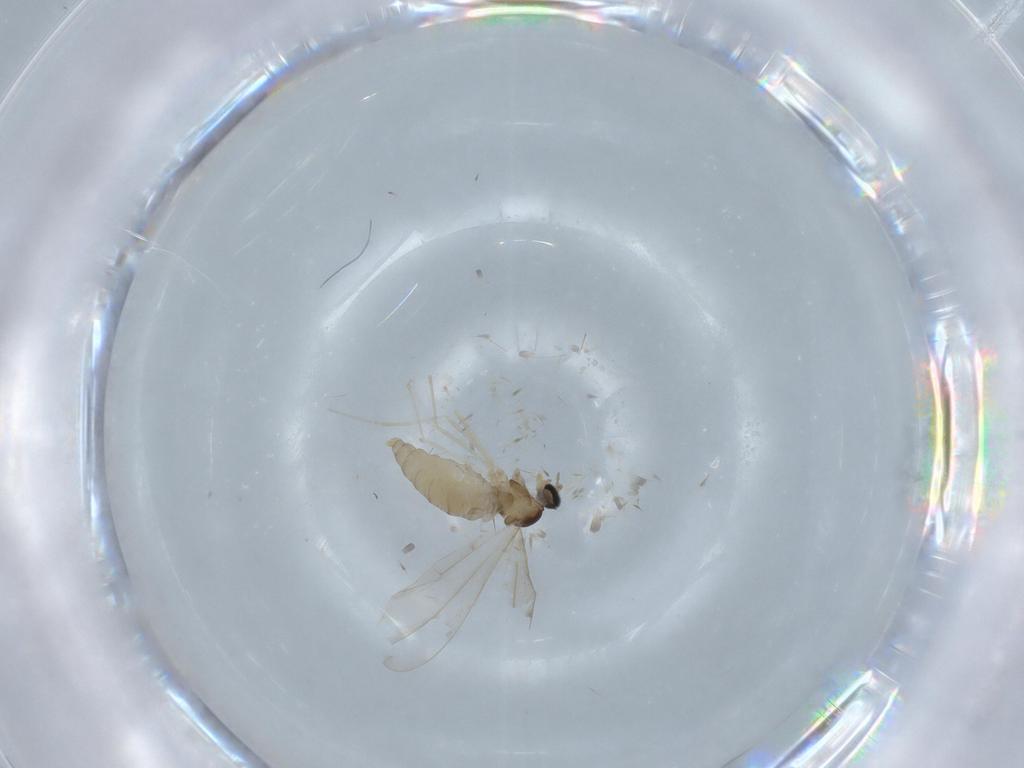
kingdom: Animalia
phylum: Arthropoda
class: Insecta
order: Diptera
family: Cecidomyiidae
